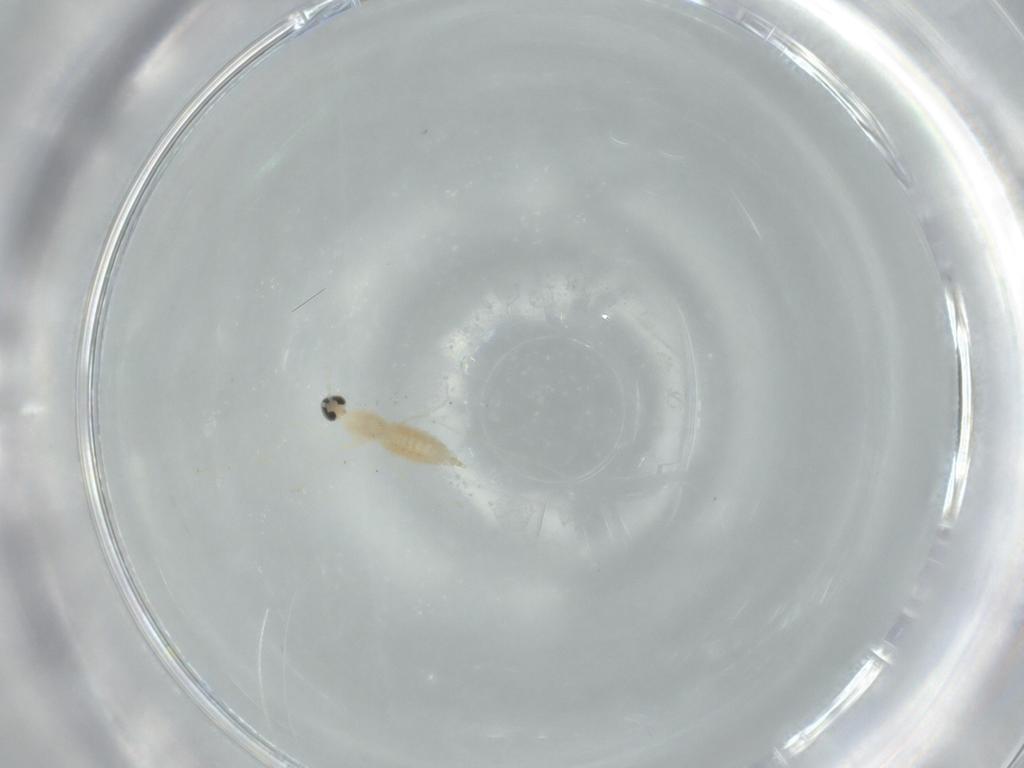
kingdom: Animalia
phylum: Arthropoda
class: Insecta
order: Diptera
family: Cecidomyiidae
